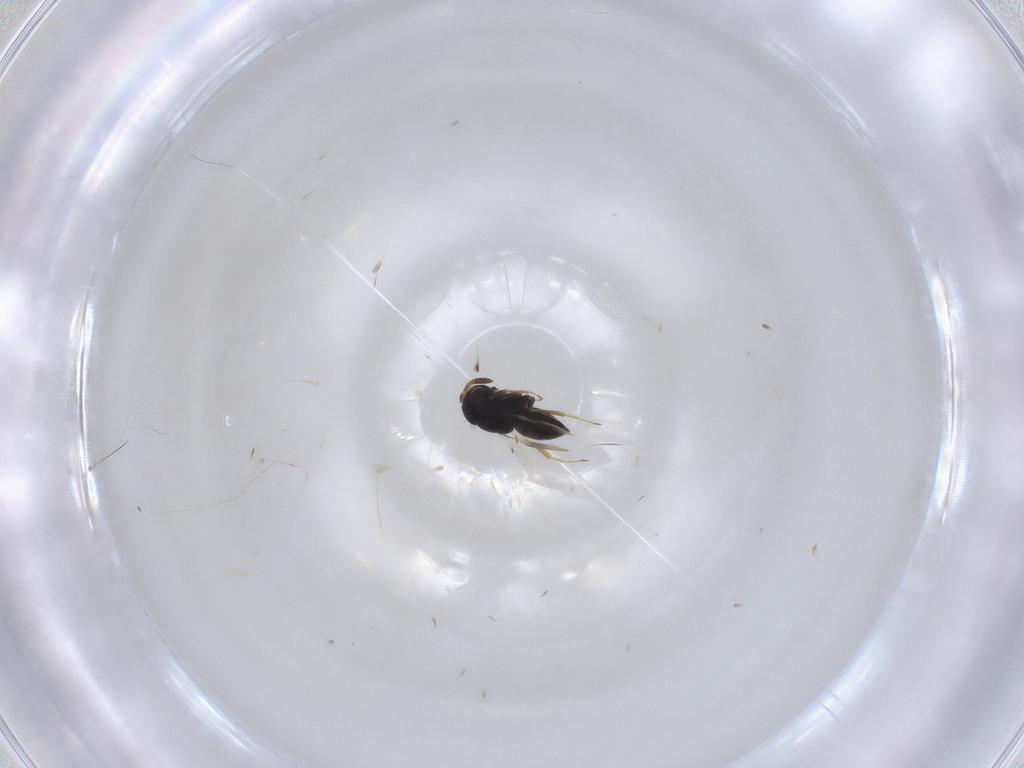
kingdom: Animalia
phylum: Arthropoda
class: Insecta
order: Hymenoptera
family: Scelionidae
